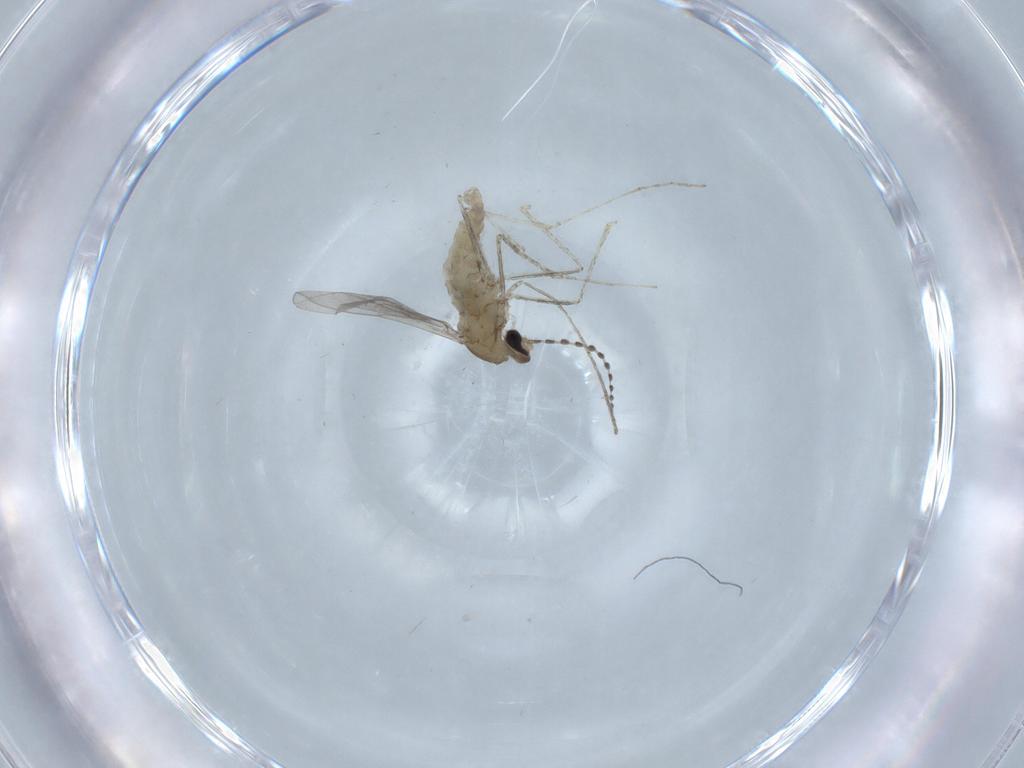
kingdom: Animalia
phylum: Arthropoda
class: Insecta
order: Diptera
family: Cecidomyiidae
